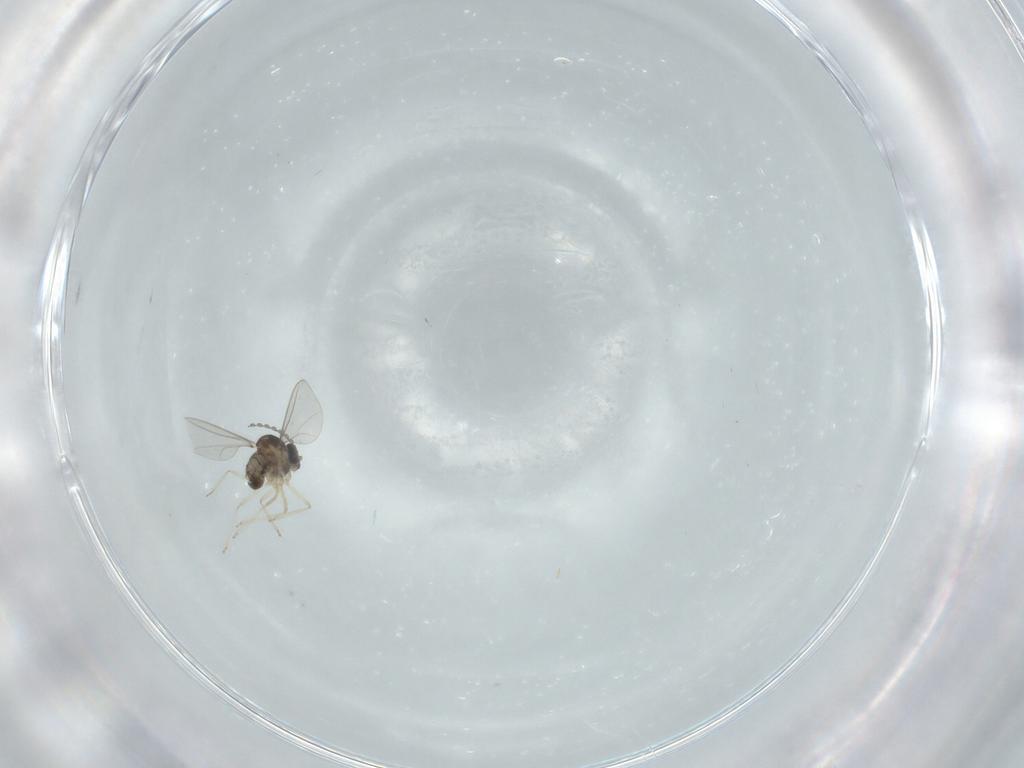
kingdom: Animalia
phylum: Arthropoda
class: Insecta
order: Diptera
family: Cecidomyiidae
